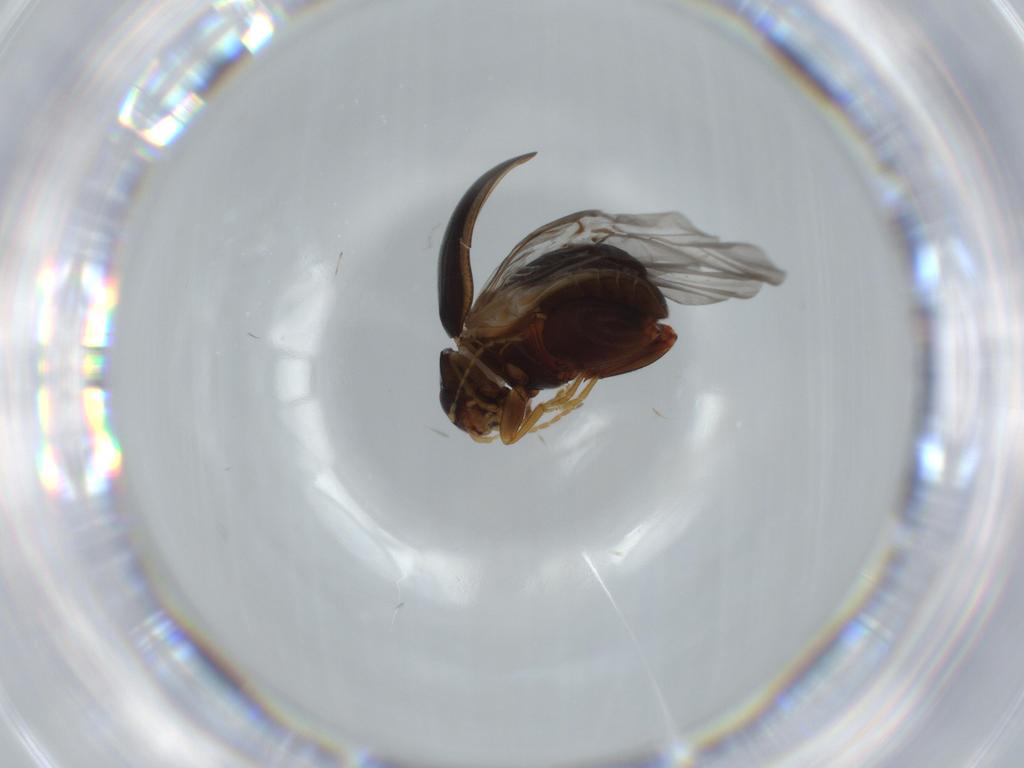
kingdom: Animalia
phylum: Arthropoda
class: Insecta
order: Coleoptera
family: Chrysomelidae
